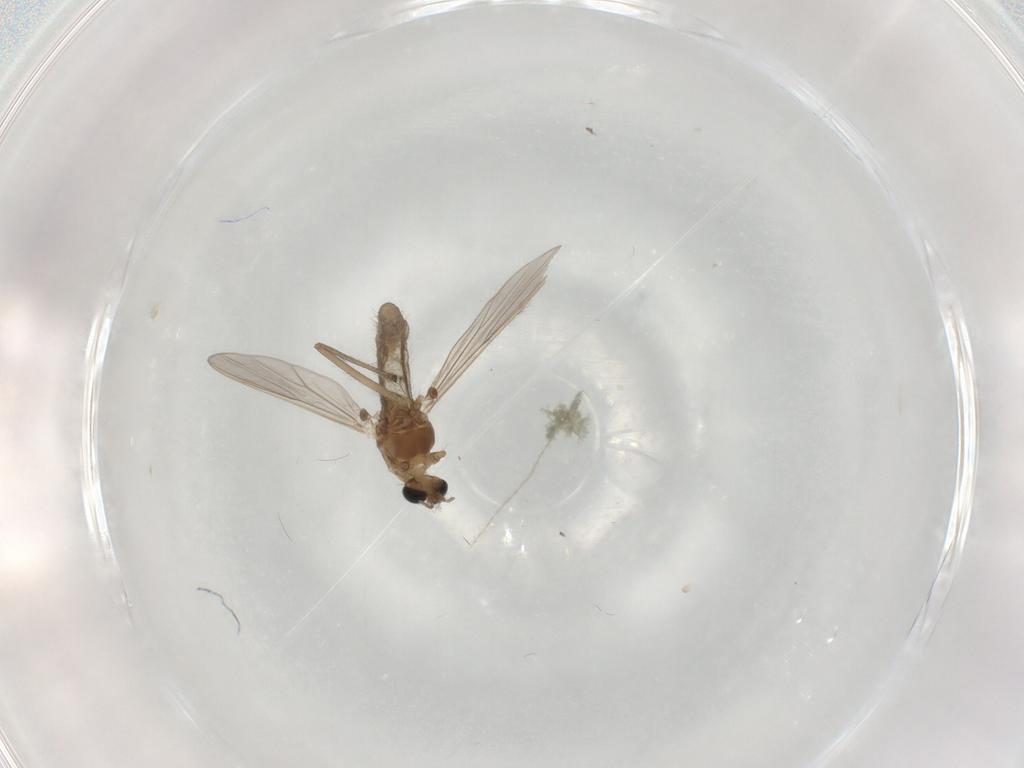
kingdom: Animalia
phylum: Arthropoda
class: Insecta
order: Diptera
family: Chironomidae
